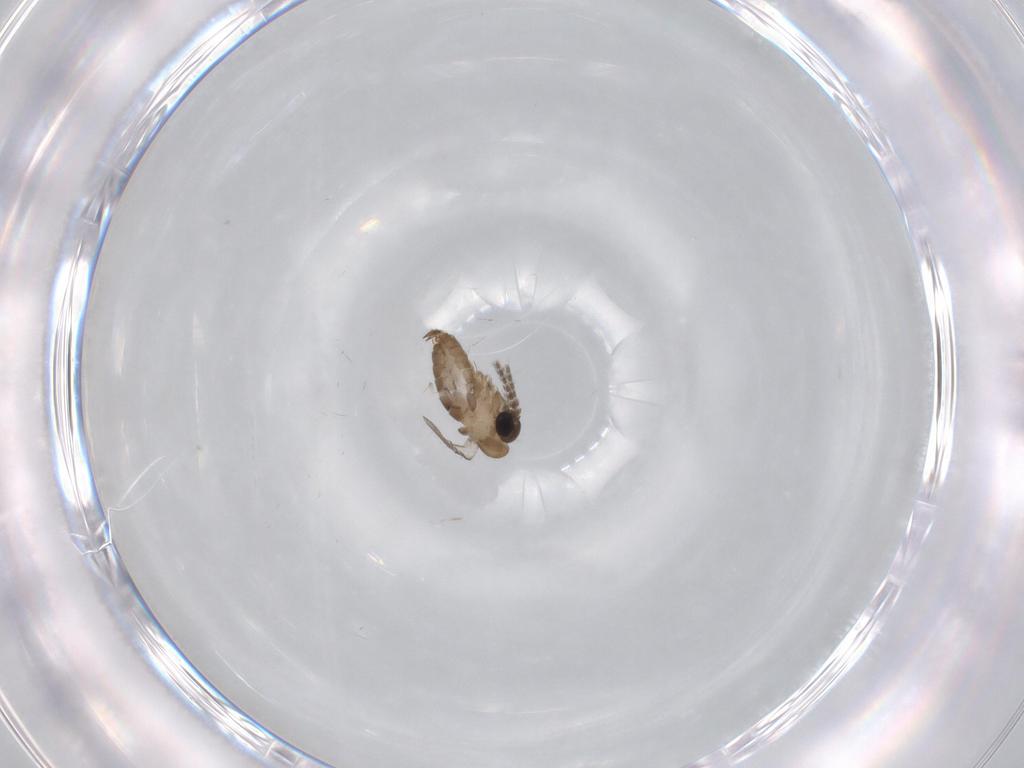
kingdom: Animalia
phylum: Arthropoda
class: Insecta
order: Diptera
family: Psychodidae
